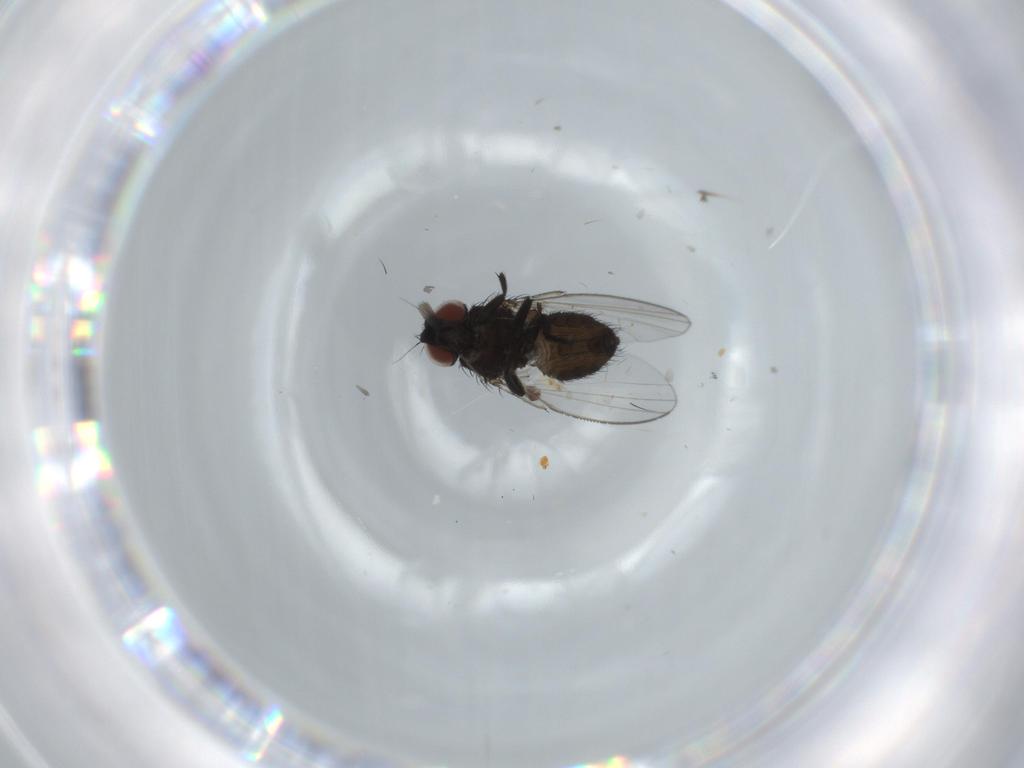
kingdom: Animalia
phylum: Arthropoda
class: Insecta
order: Diptera
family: Milichiidae
